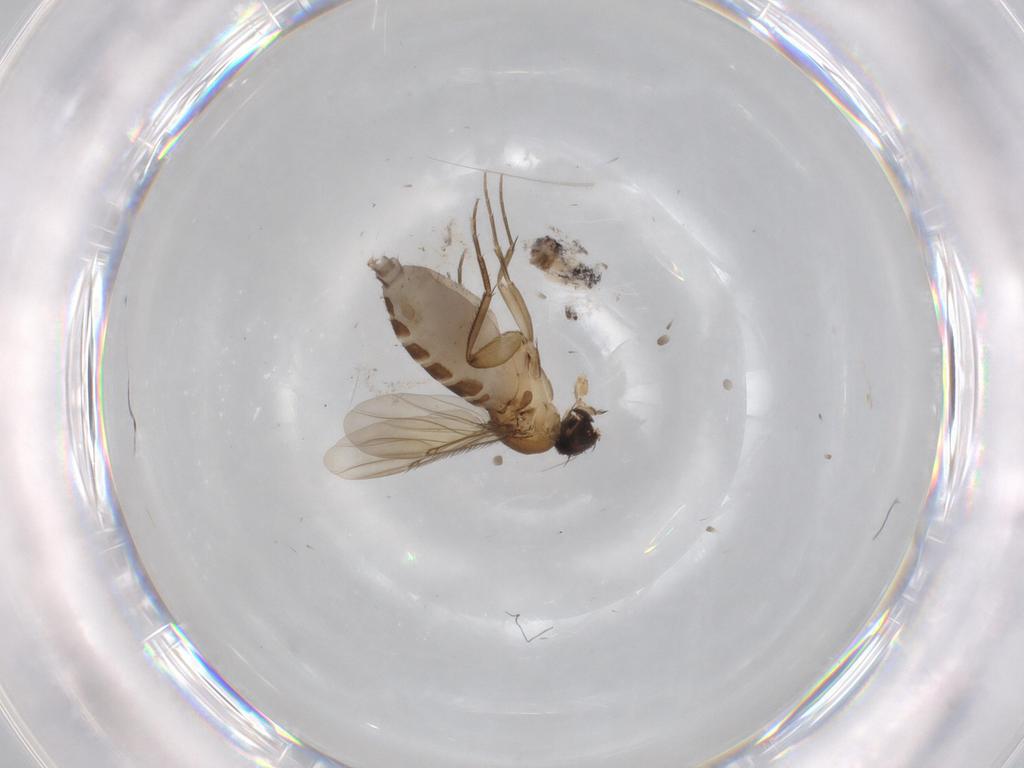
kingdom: Animalia
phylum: Arthropoda
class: Insecta
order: Diptera
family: Phoridae
